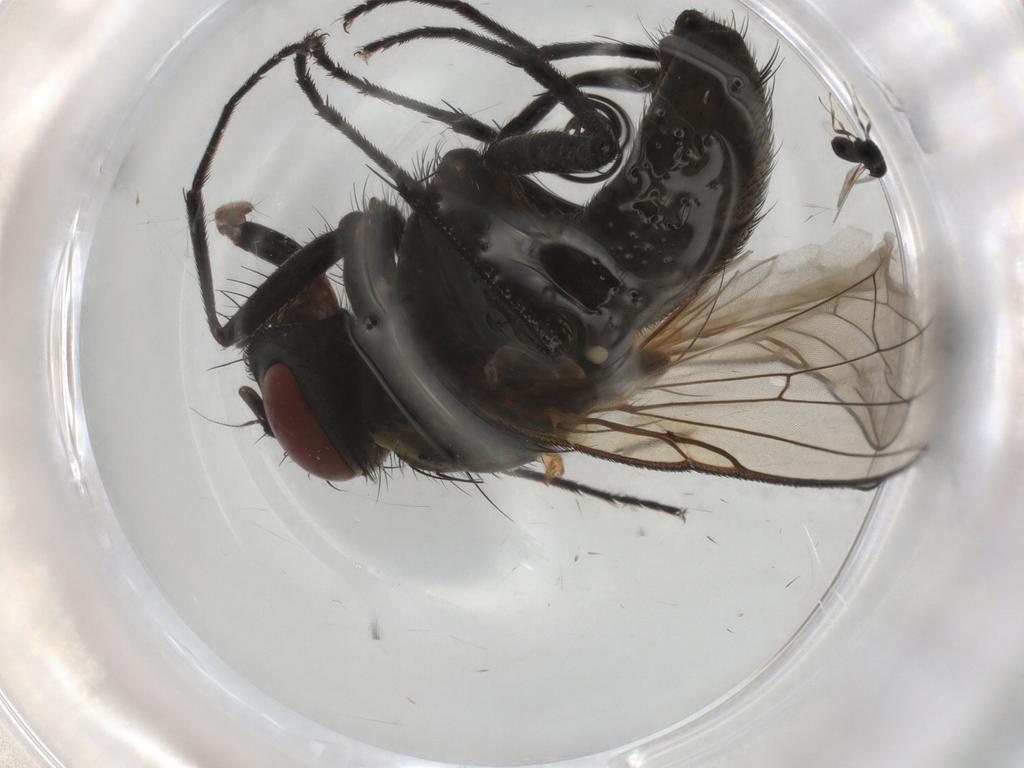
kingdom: Animalia
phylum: Arthropoda
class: Insecta
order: Diptera
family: Muscidae
